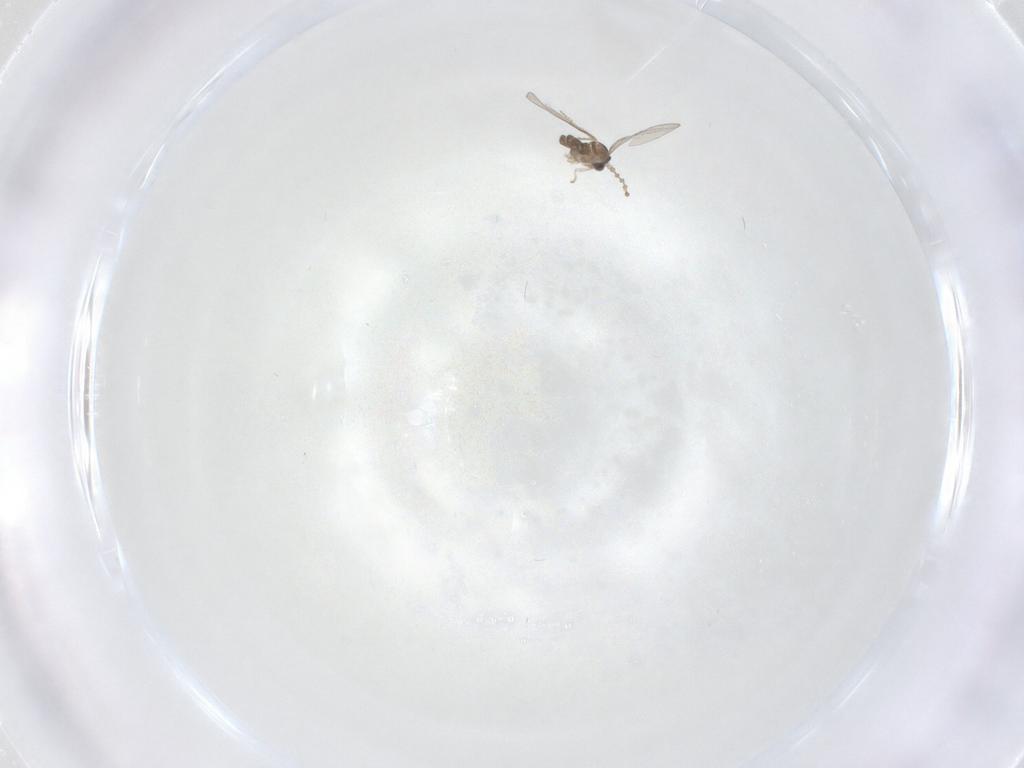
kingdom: Animalia
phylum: Arthropoda
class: Insecta
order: Diptera
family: Cecidomyiidae
